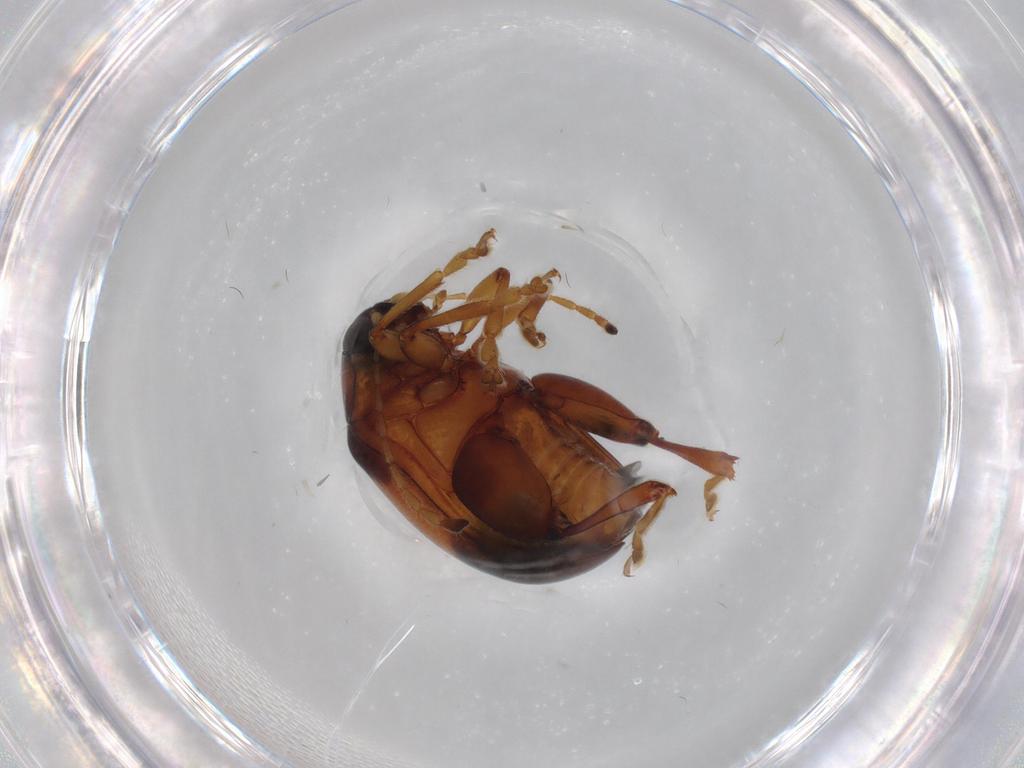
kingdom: Animalia
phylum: Arthropoda
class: Insecta
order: Coleoptera
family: Chrysomelidae
